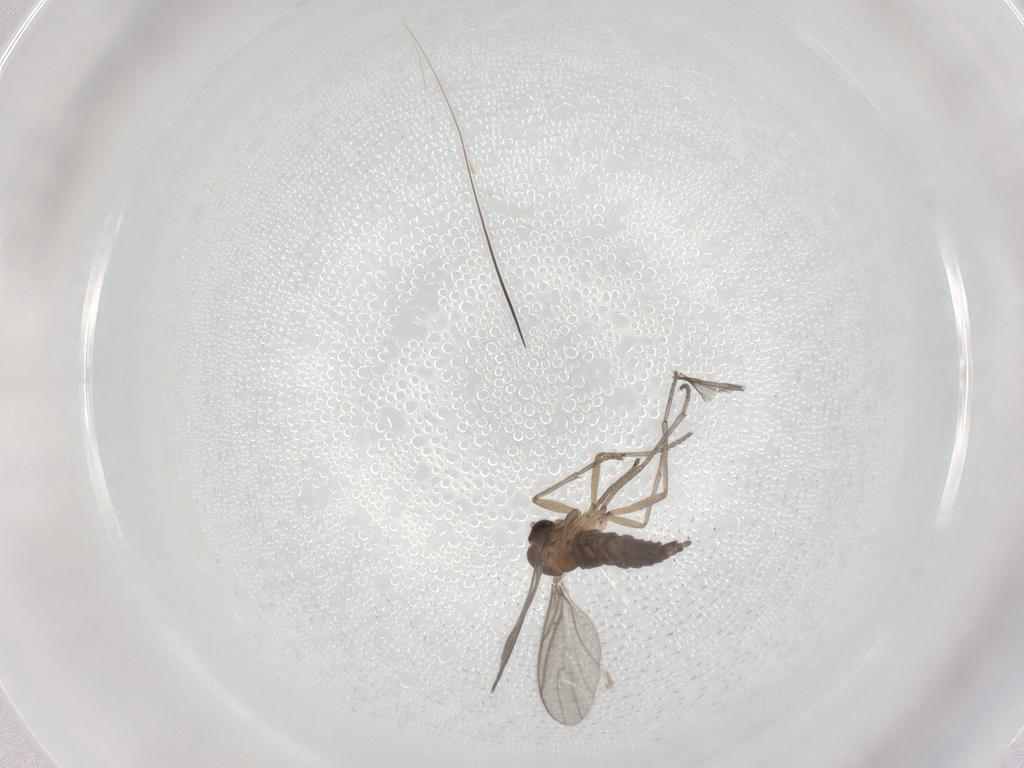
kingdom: Animalia
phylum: Arthropoda
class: Insecta
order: Diptera
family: Sciaridae
